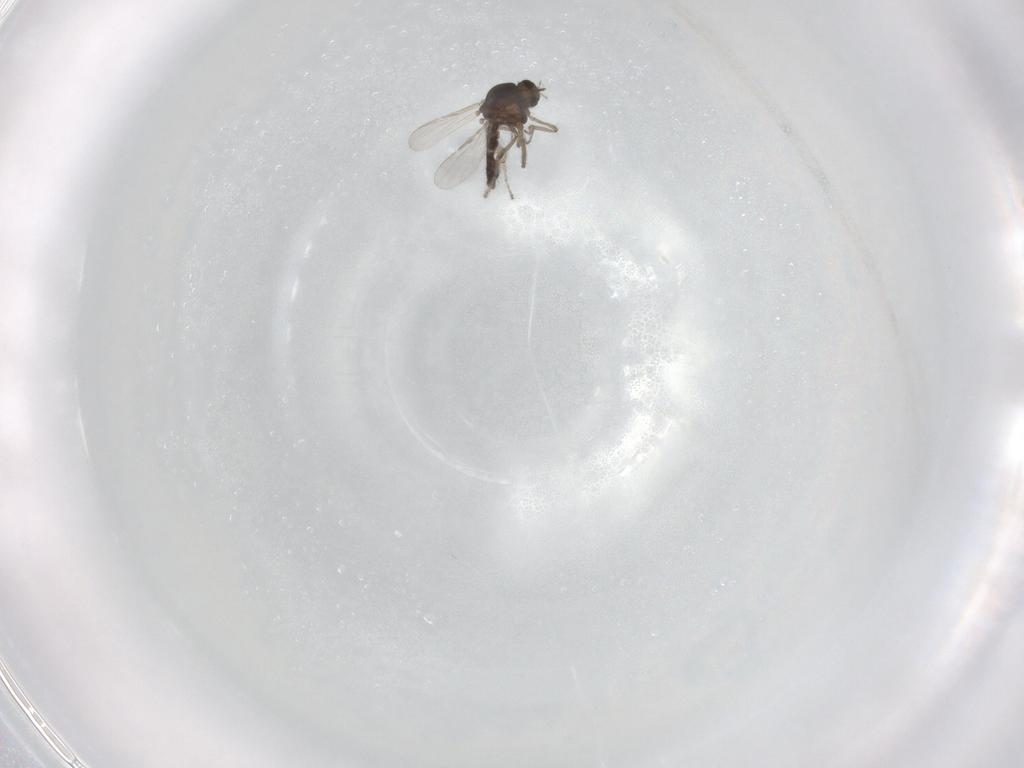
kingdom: Animalia
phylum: Arthropoda
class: Insecta
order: Diptera
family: Ceratopogonidae
